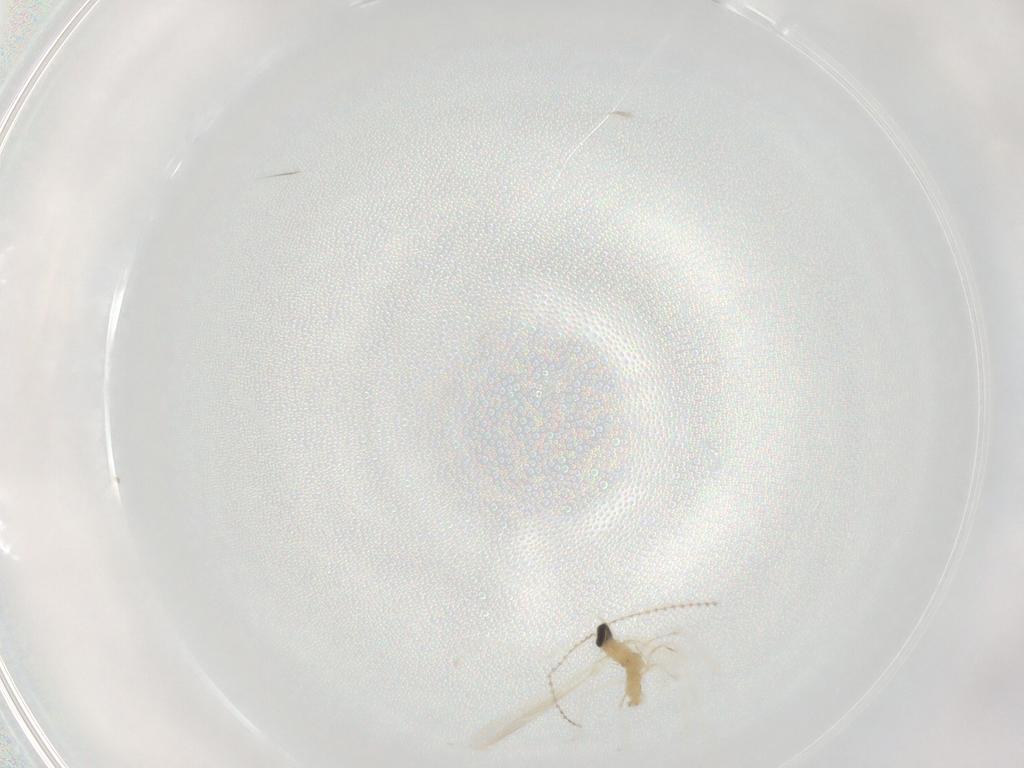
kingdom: Animalia
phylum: Arthropoda
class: Insecta
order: Diptera
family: Cecidomyiidae
